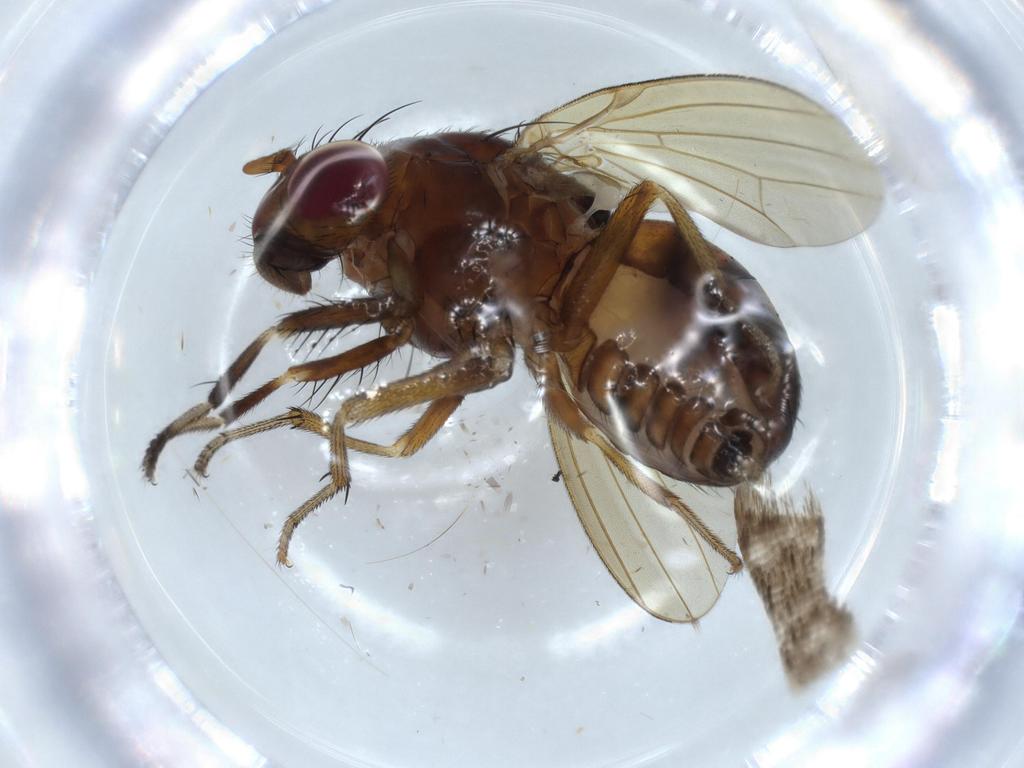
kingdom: Animalia
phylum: Arthropoda
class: Insecta
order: Diptera
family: Cecidomyiidae
